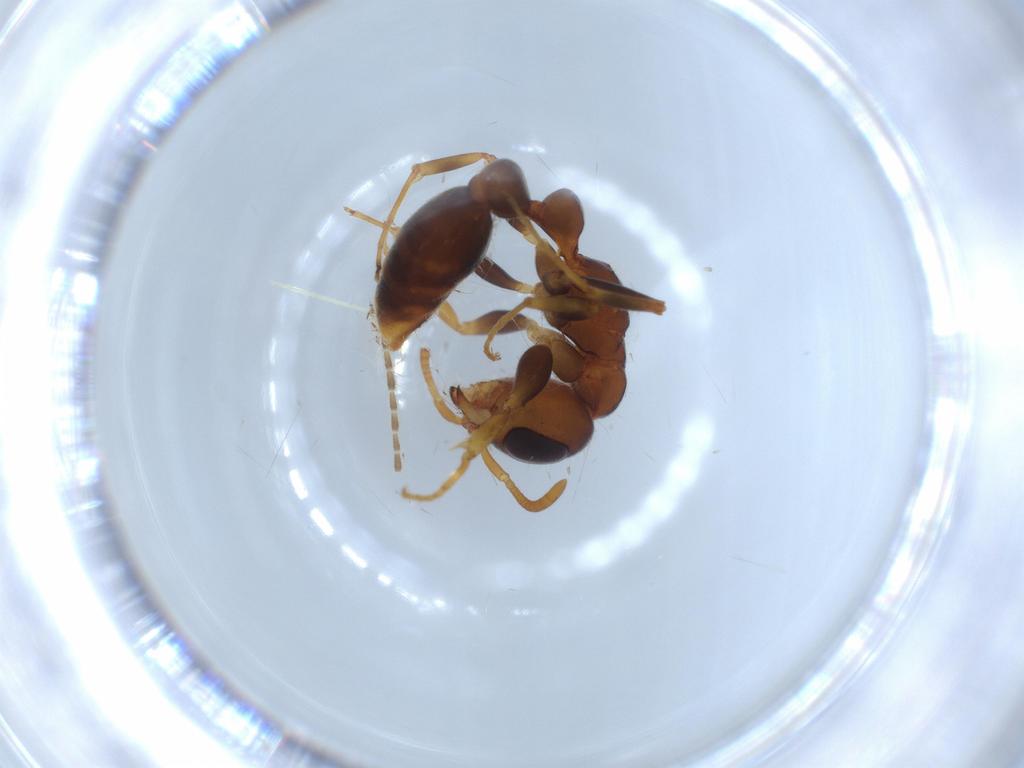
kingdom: Animalia
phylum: Arthropoda
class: Insecta
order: Hymenoptera
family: Formicidae
